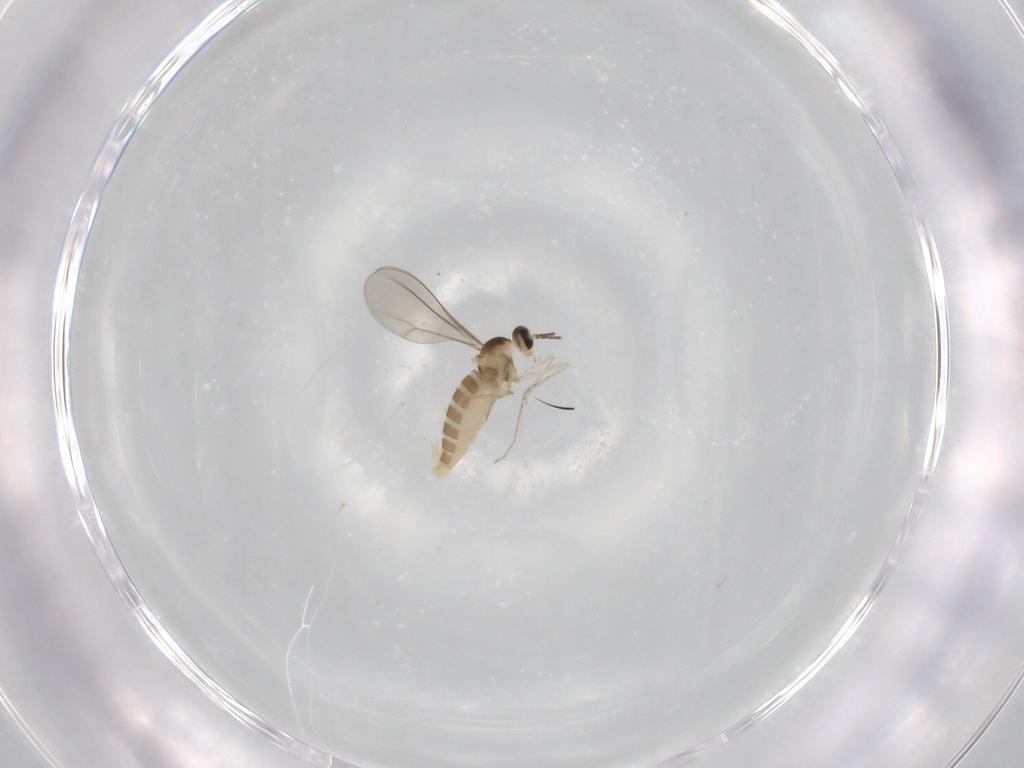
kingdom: Animalia
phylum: Arthropoda
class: Insecta
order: Diptera
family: Cecidomyiidae
